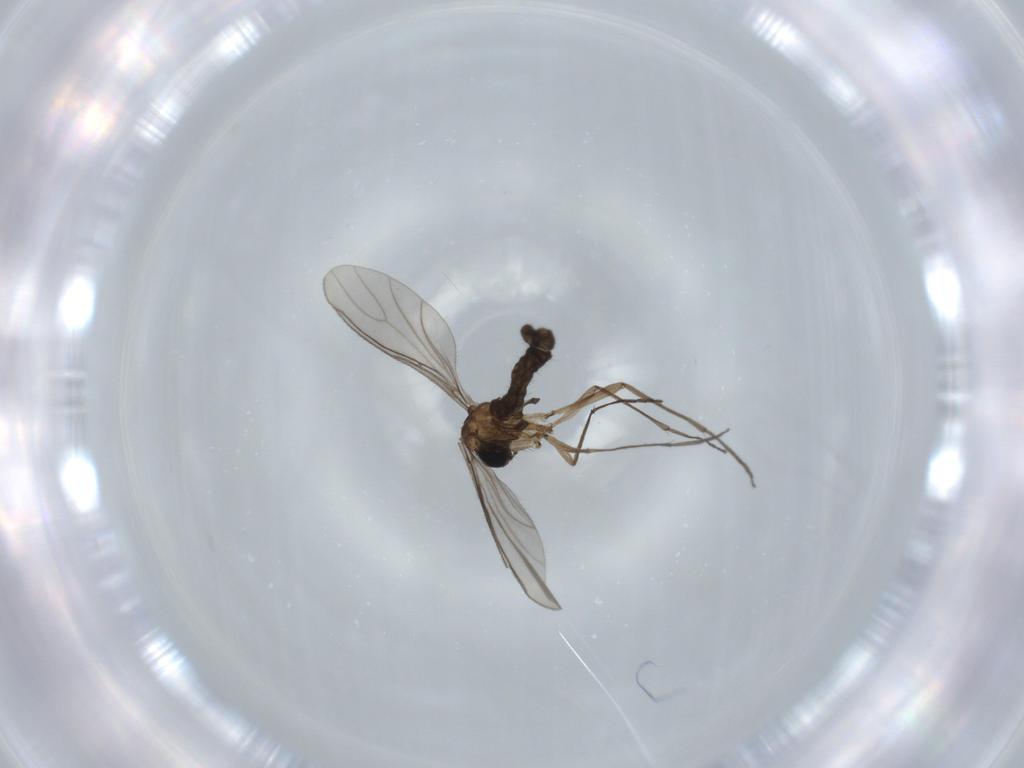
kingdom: Animalia
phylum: Arthropoda
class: Insecta
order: Diptera
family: Sciaridae
